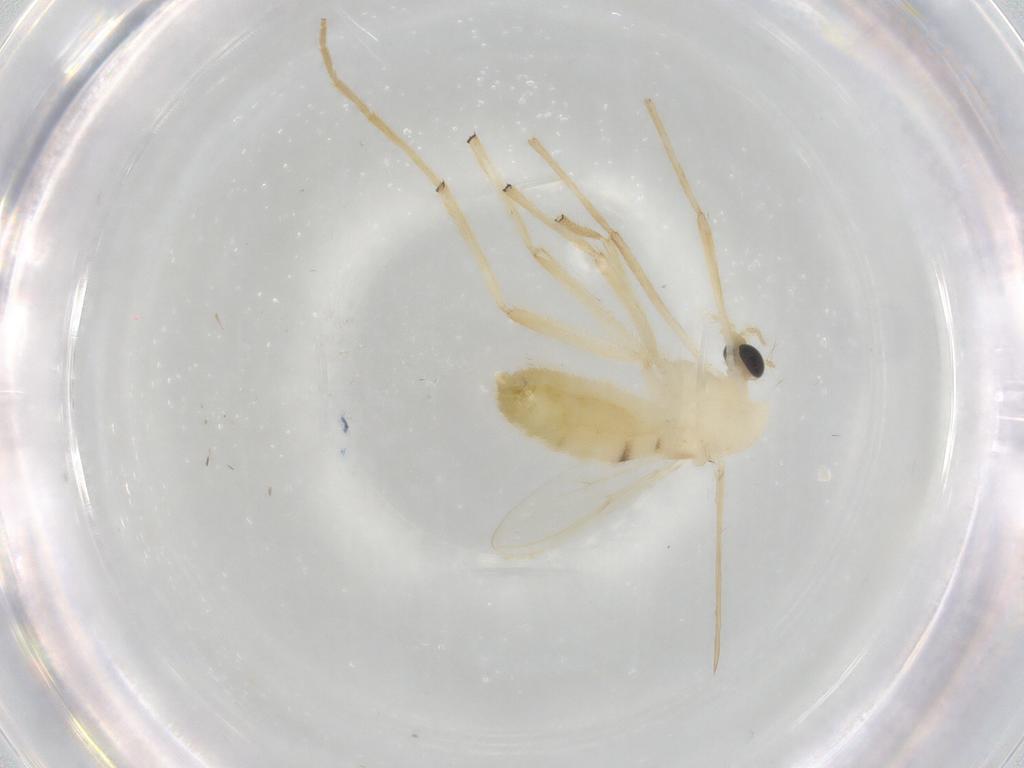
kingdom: Animalia
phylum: Arthropoda
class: Insecta
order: Diptera
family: Chironomidae
